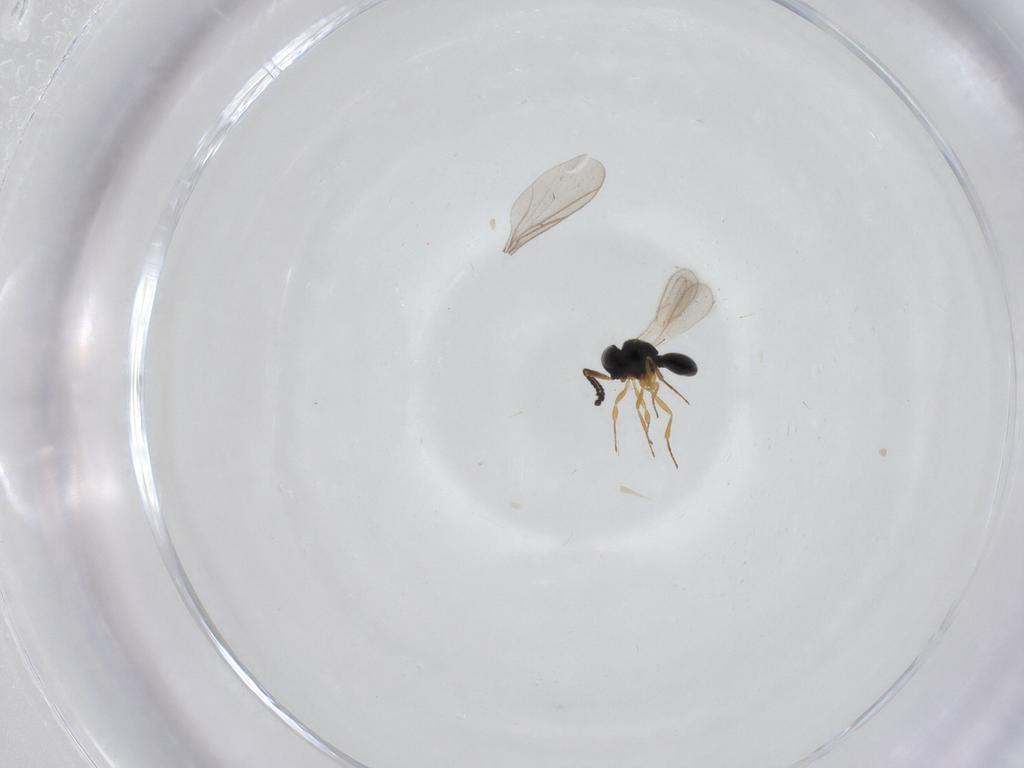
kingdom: Animalia
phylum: Arthropoda
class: Insecta
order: Hymenoptera
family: Scelionidae
